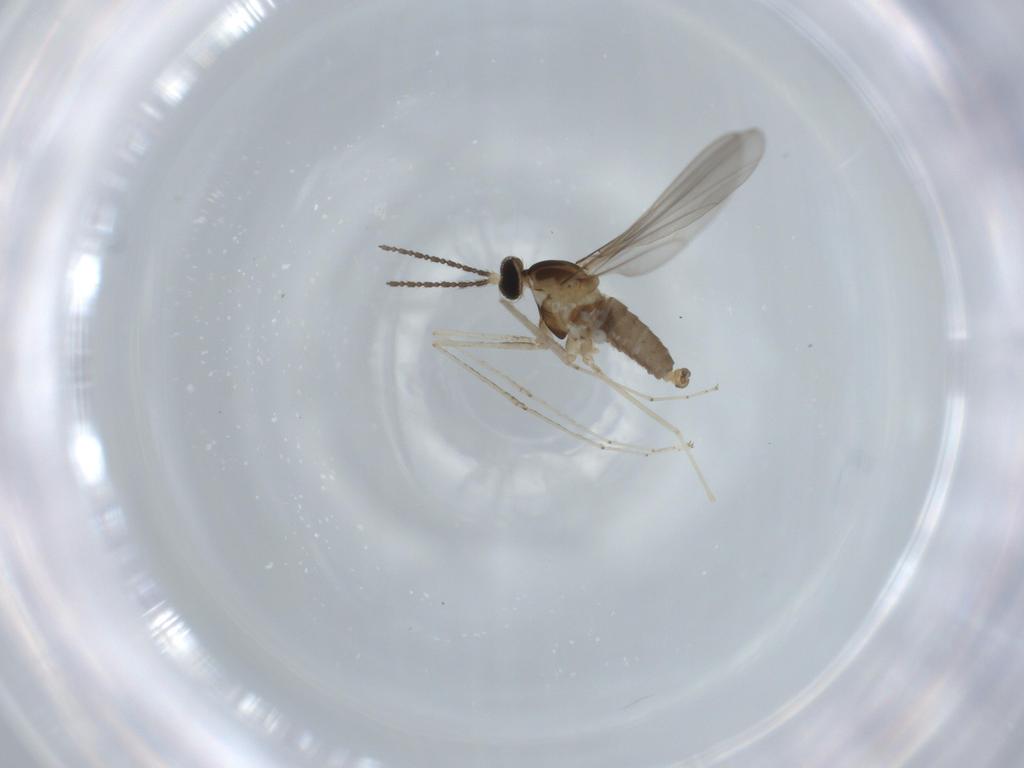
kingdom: Animalia
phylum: Arthropoda
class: Insecta
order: Diptera
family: Cecidomyiidae
